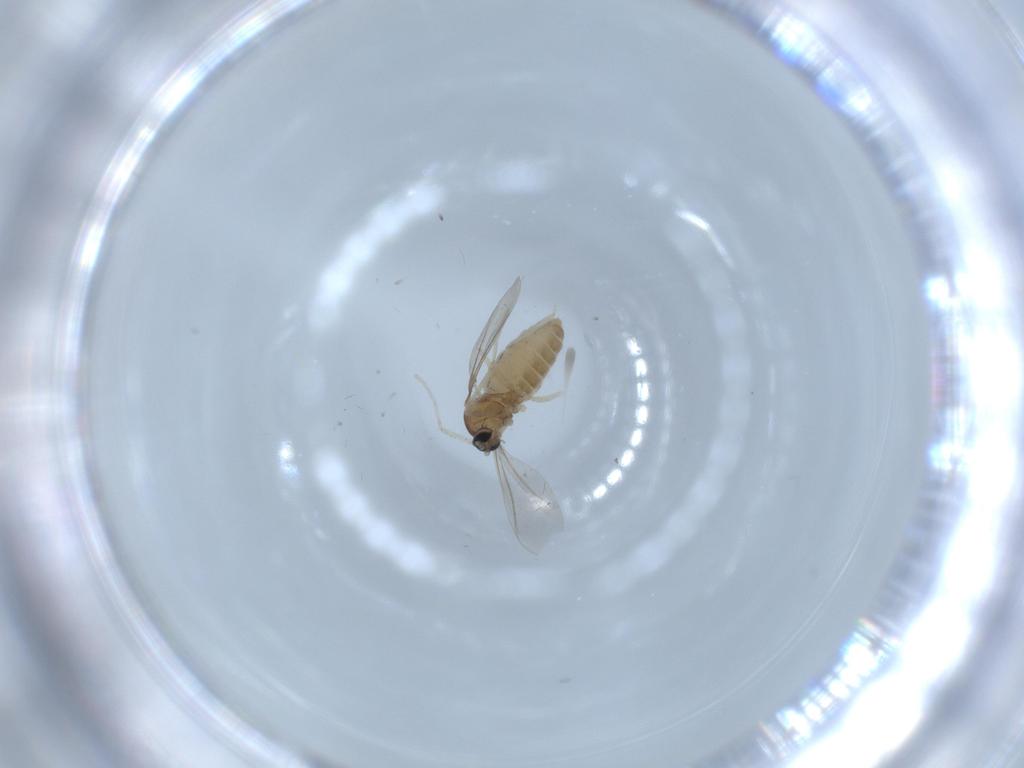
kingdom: Animalia
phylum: Arthropoda
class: Insecta
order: Diptera
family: Cecidomyiidae
